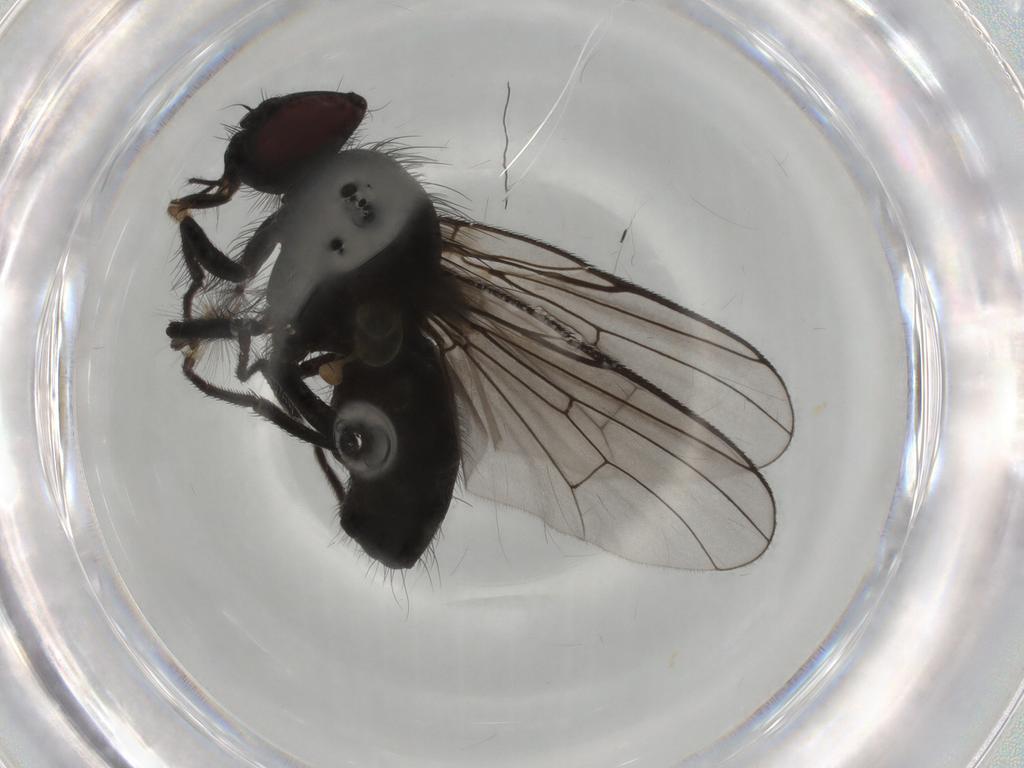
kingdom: Animalia
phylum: Arthropoda
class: Insecta
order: Diptera
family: Muscidae
